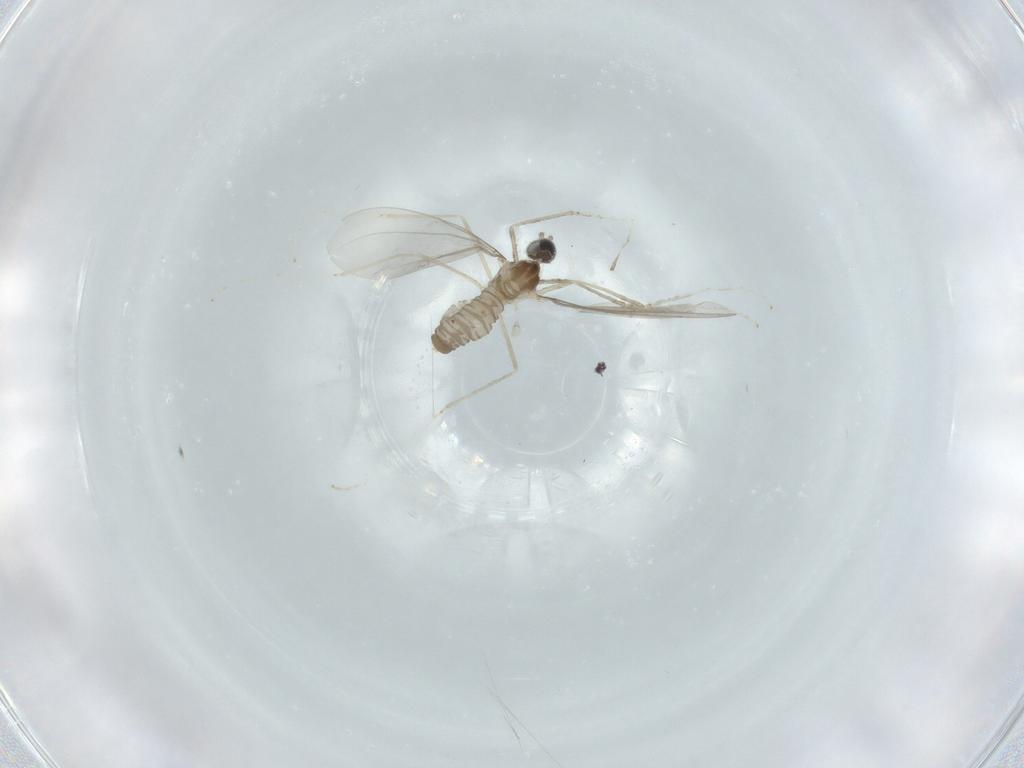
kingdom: Animalia
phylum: Arthropoda
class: Insecta
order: Diptera
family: Cecidomyiidae
